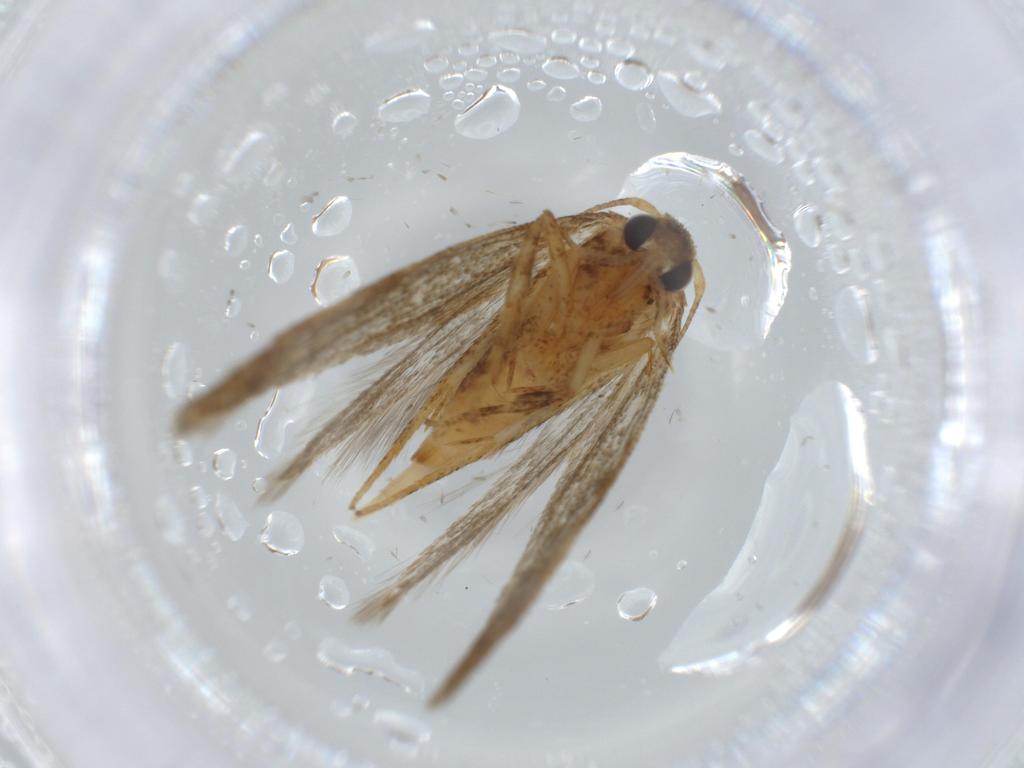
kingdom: Animalia
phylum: Arthropoda
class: Insecta
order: Lepidoptera
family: Coleophoridae
